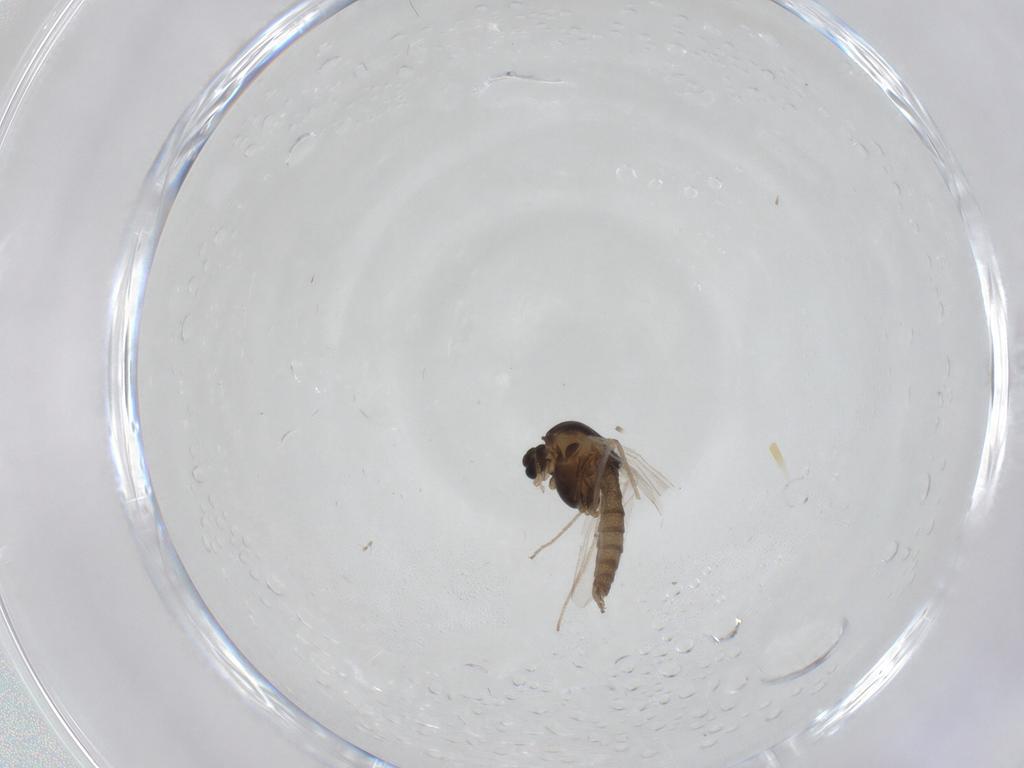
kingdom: Animalia
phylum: Arthropoda
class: Insecta
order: Diptera
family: Chironomidae
